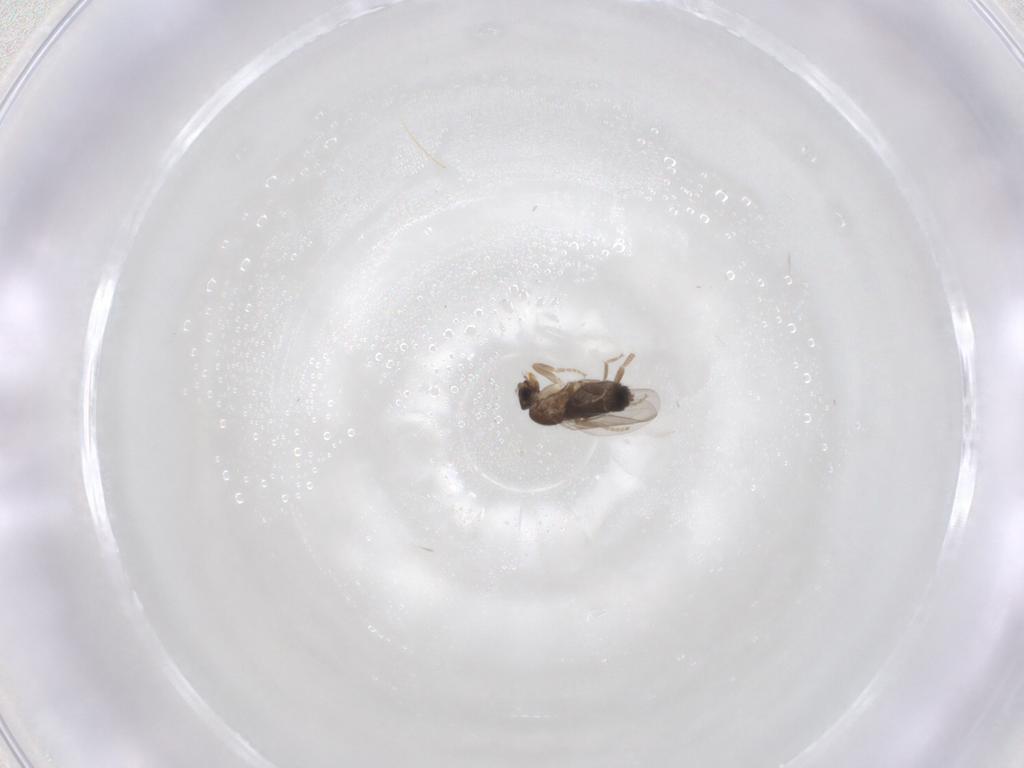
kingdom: Animalia
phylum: Arthropoda
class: Insecta
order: Diptera
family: Phoridae
